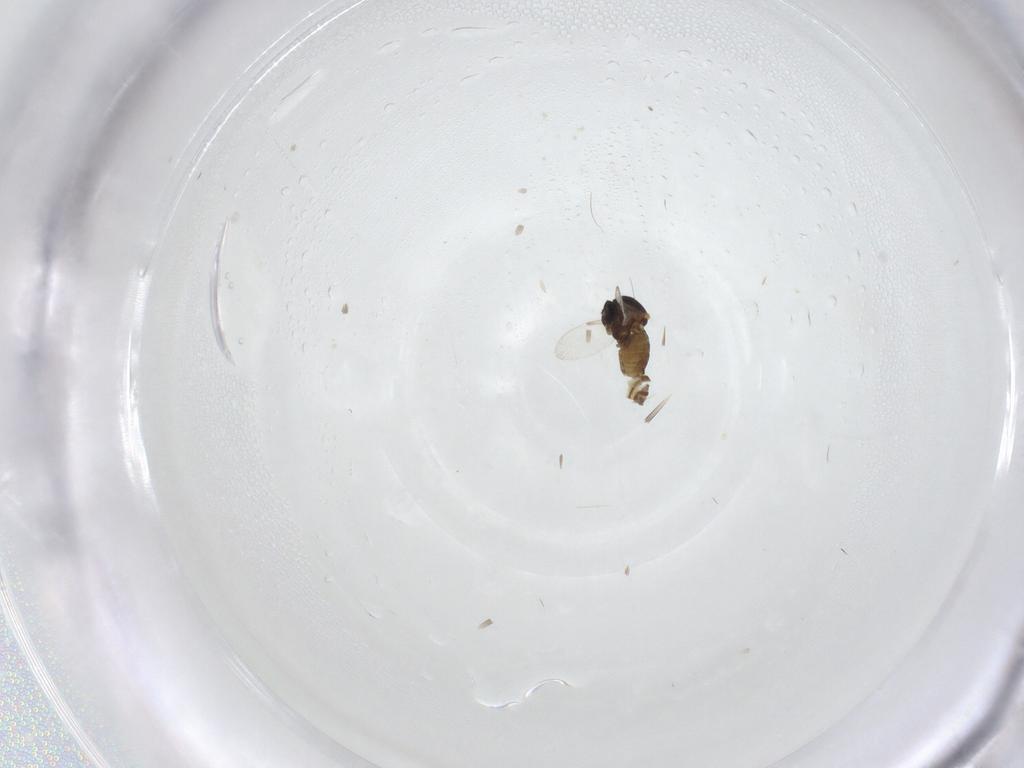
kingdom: Animalia
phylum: Arthropoda
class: Insecta
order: Diptera
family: Ceratopogonidae
